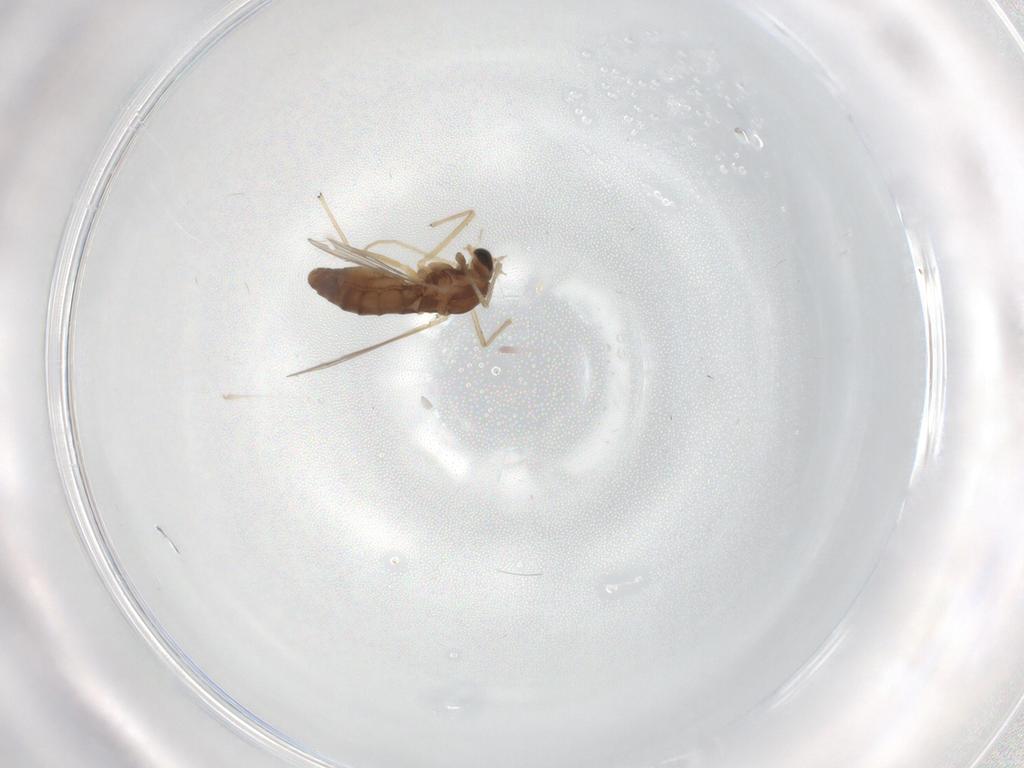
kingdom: Animalia
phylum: Arthropoda
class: Insecta
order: Diptera
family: Chironomidae
